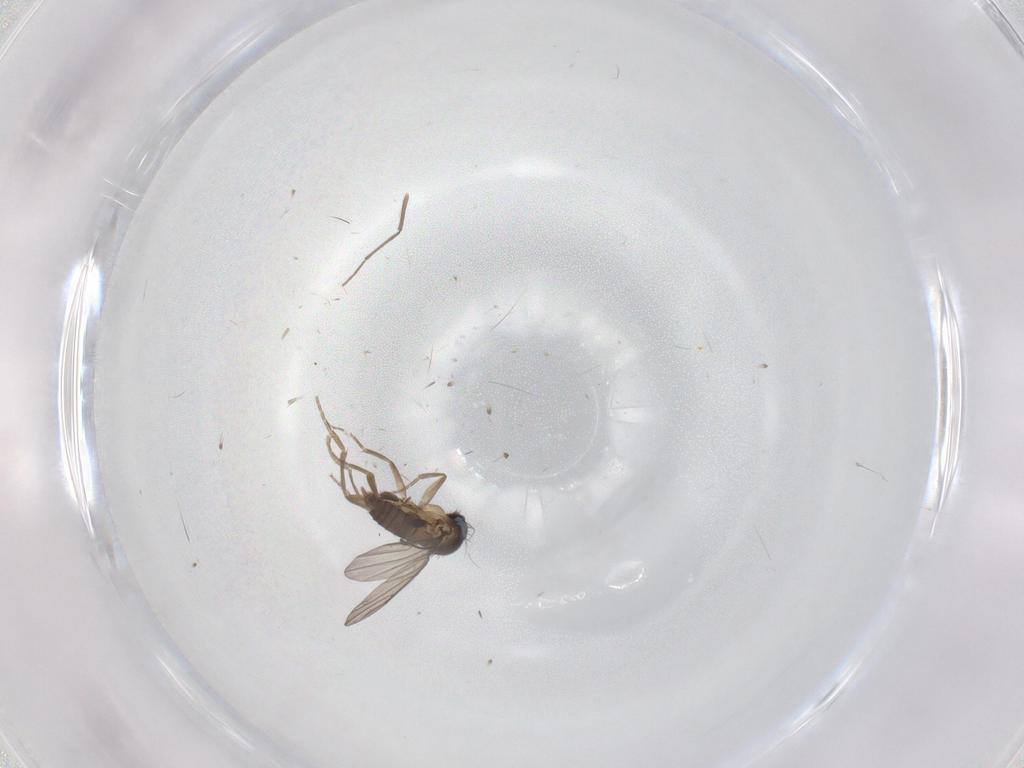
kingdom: Animalia
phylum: Arthropoda
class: Insecta
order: Diptera
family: Phoridae
